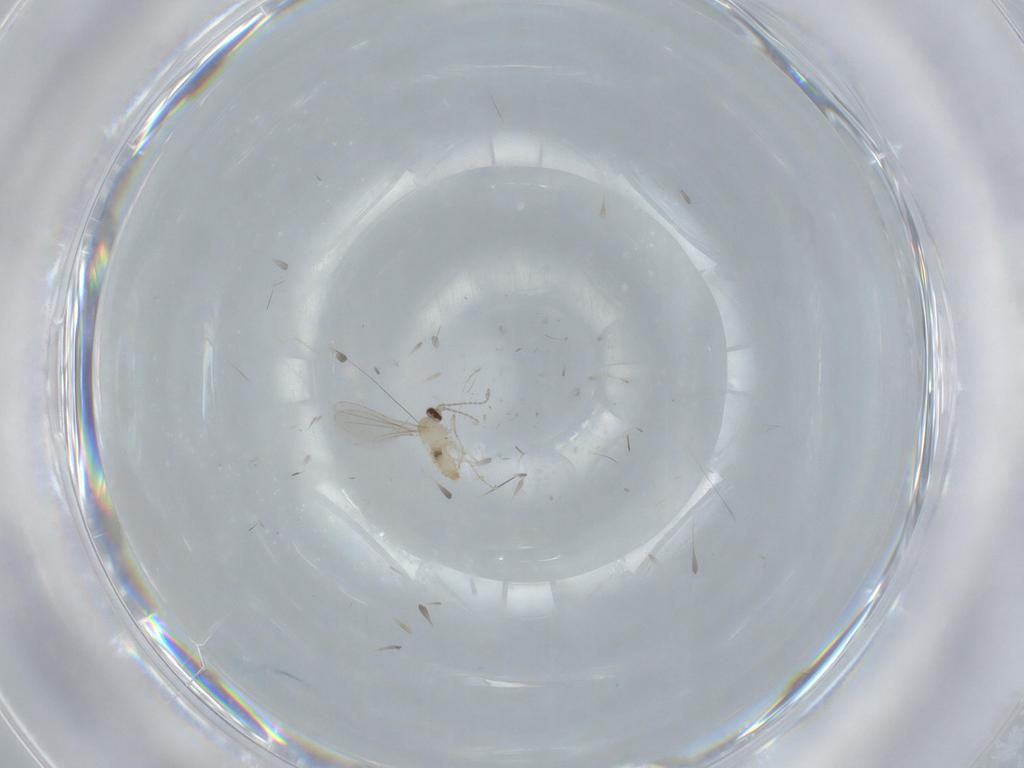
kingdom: Animalia
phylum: Arthropoda
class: Insecta
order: Diptera
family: Cecidomyiidae
